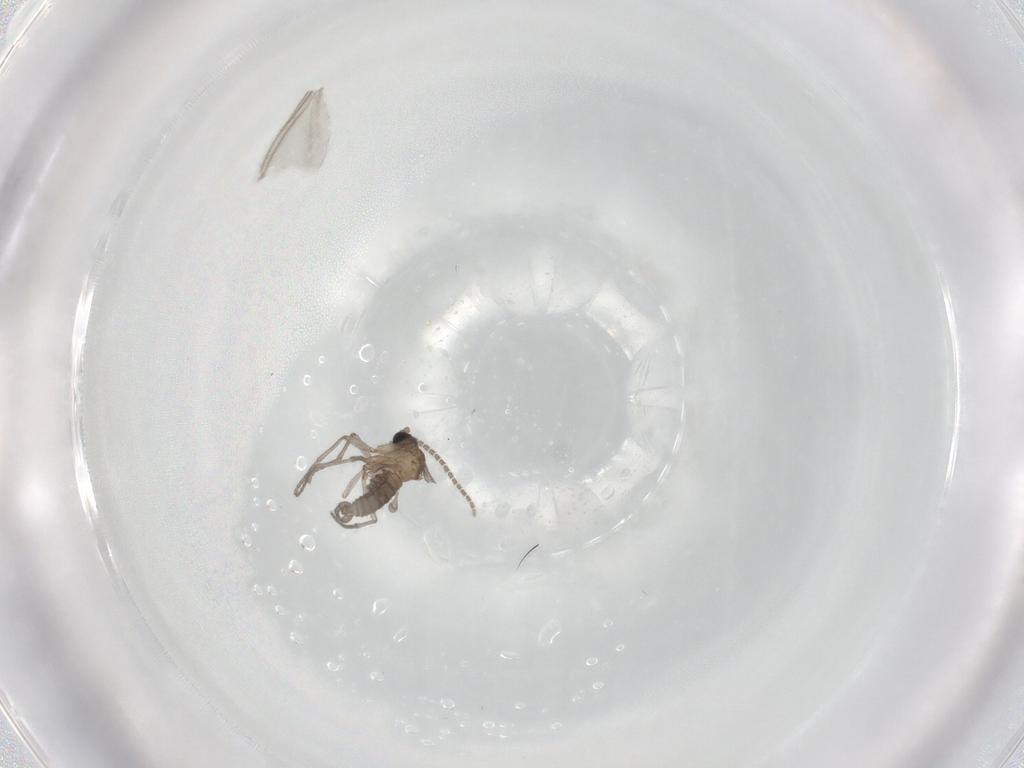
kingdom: Animalia
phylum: Arthropoda
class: Insecta
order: Diptera
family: Sciaridae
